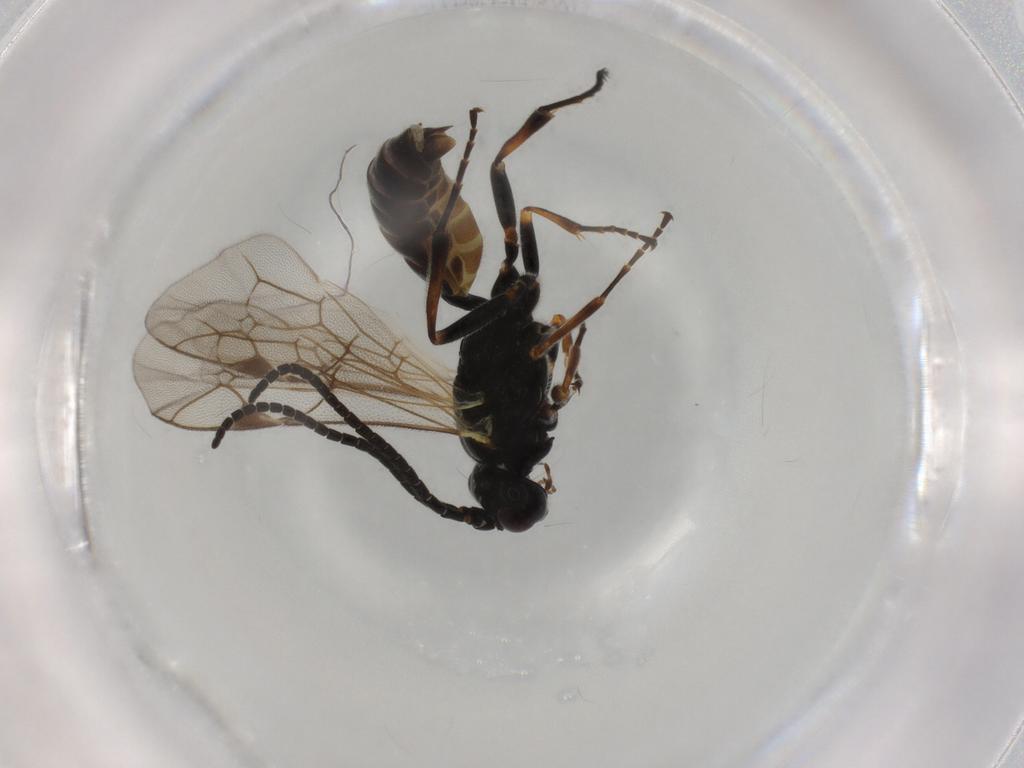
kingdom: Animalia
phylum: Arthropoda
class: Insecta
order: Hymenoptera
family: Ichneumonidae
